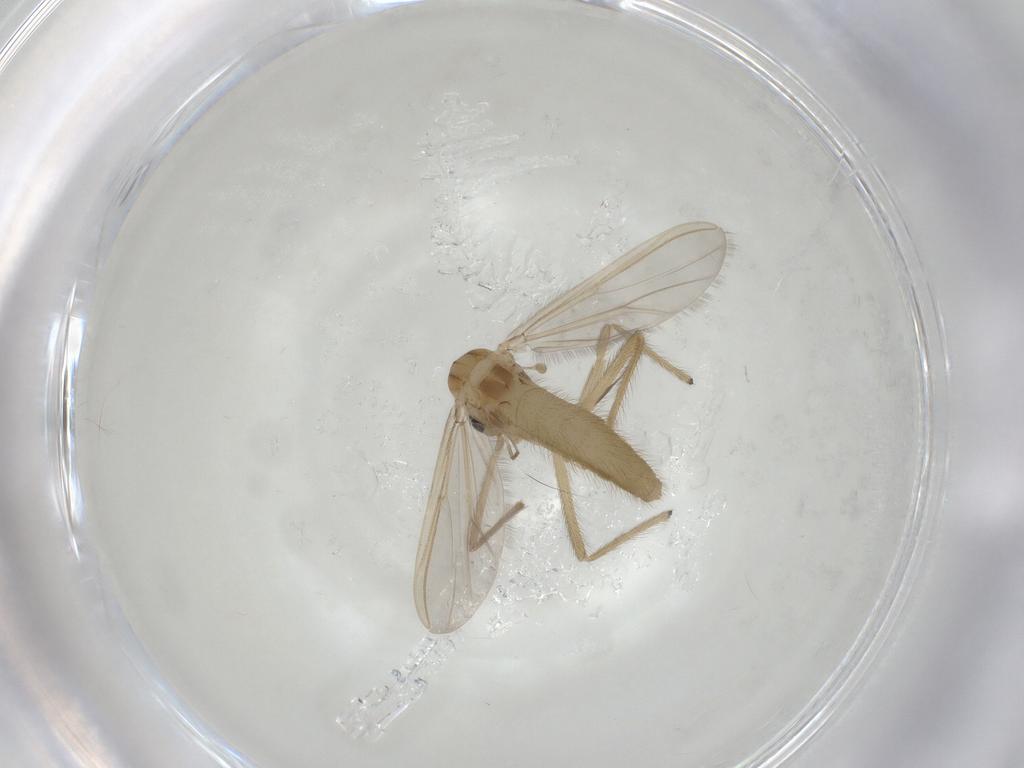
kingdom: Animalia
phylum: Arthropoda
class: Insecta
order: Diptera
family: Chironomidae
